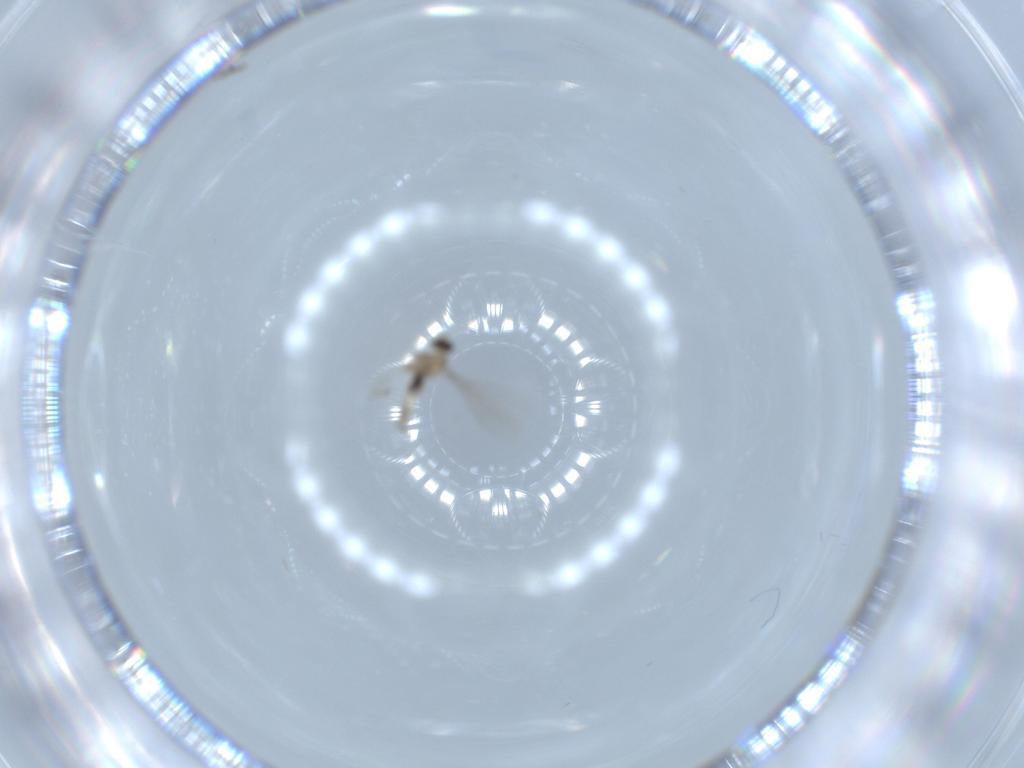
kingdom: Animalia
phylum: Arthropoda
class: Insecta
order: Diptera
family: Cecidomyiidae
